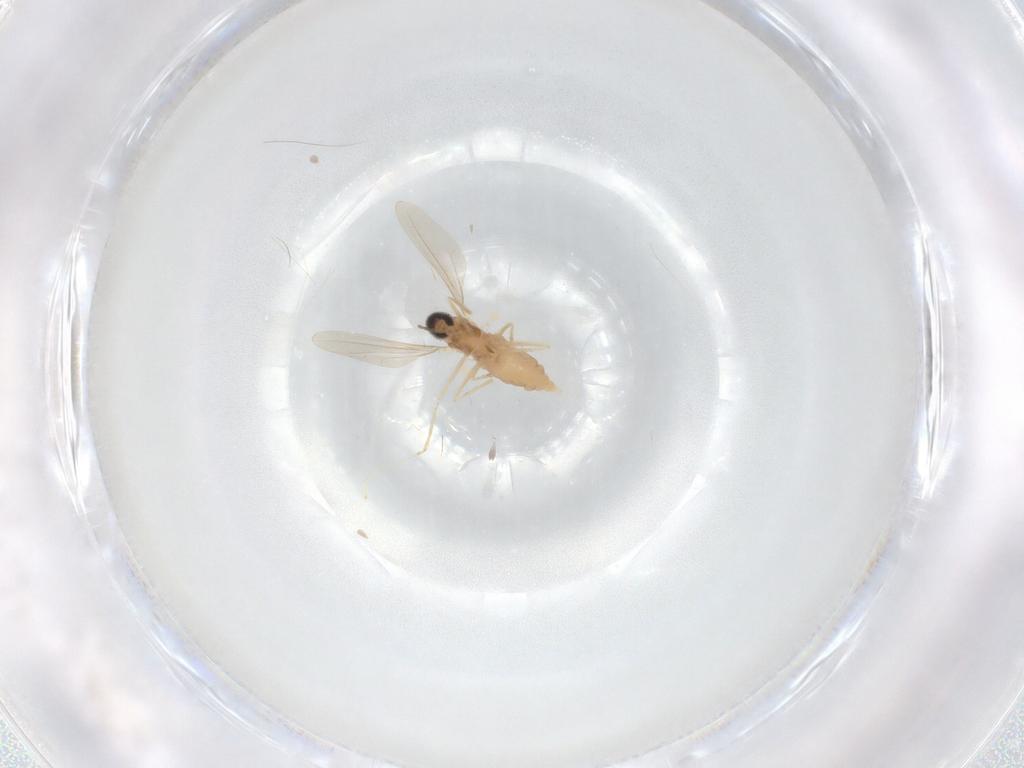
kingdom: Animalia
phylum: Arthropoda
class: Insecta
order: Diptera
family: Cecidomyiidae
